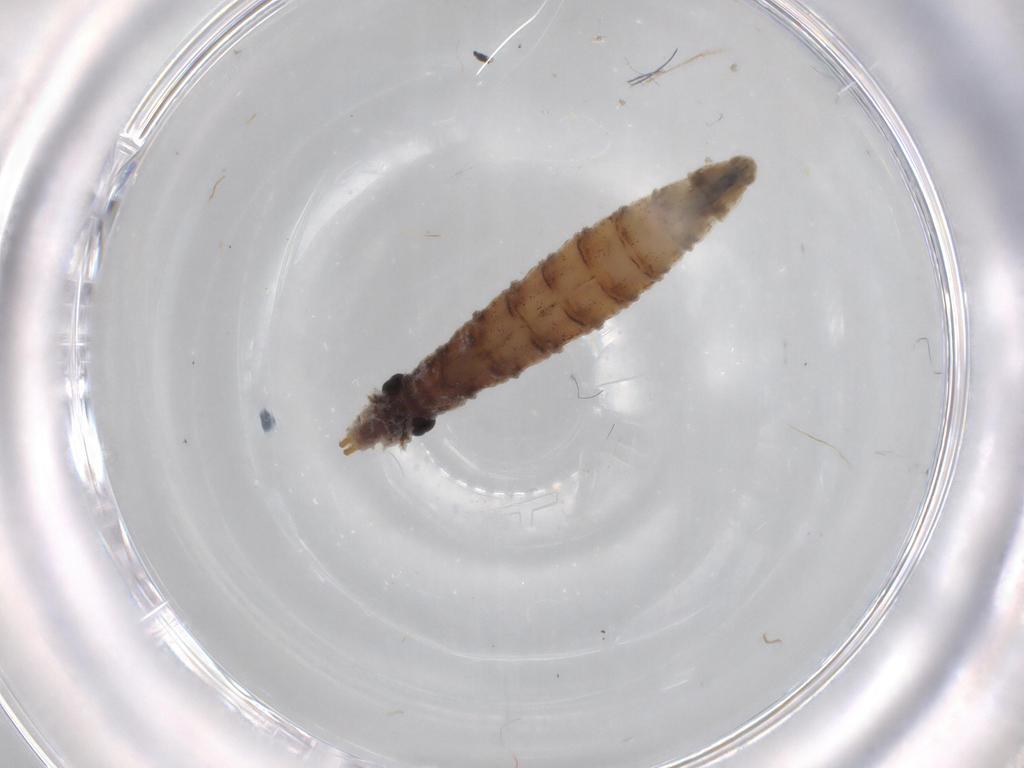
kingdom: Animalia
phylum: Arthropoda
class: Insecta
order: Diptera
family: Drosophilidae
